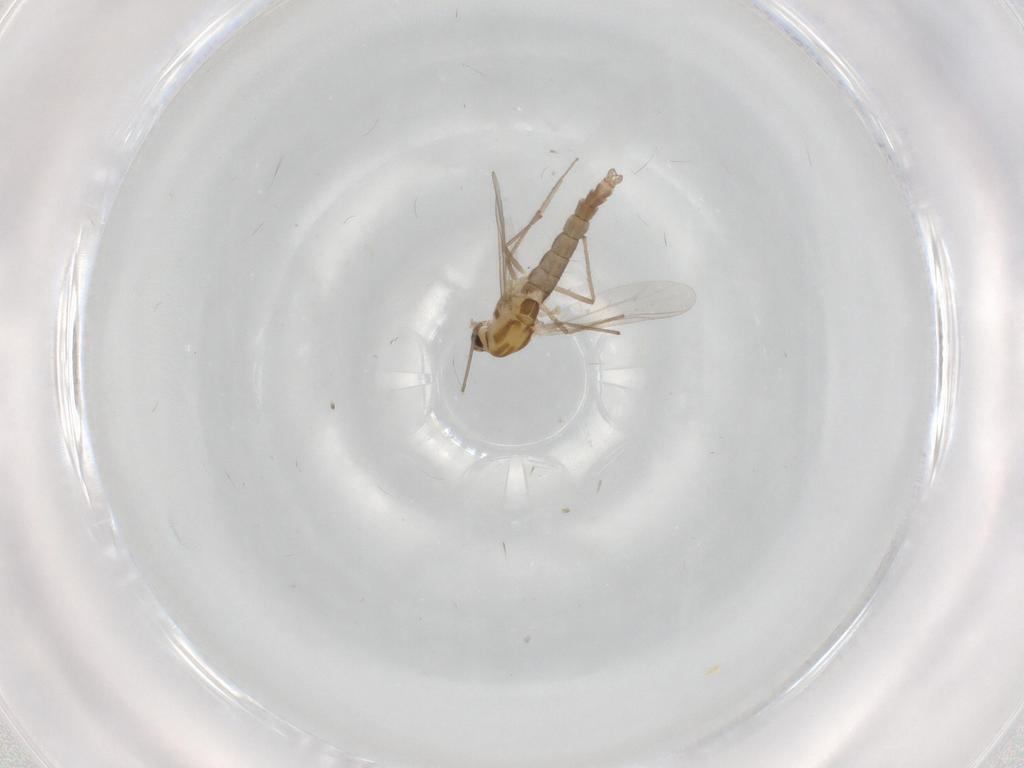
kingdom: Animalia
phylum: Arthropoda
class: Insecta
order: Diptera
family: Chironomidae
